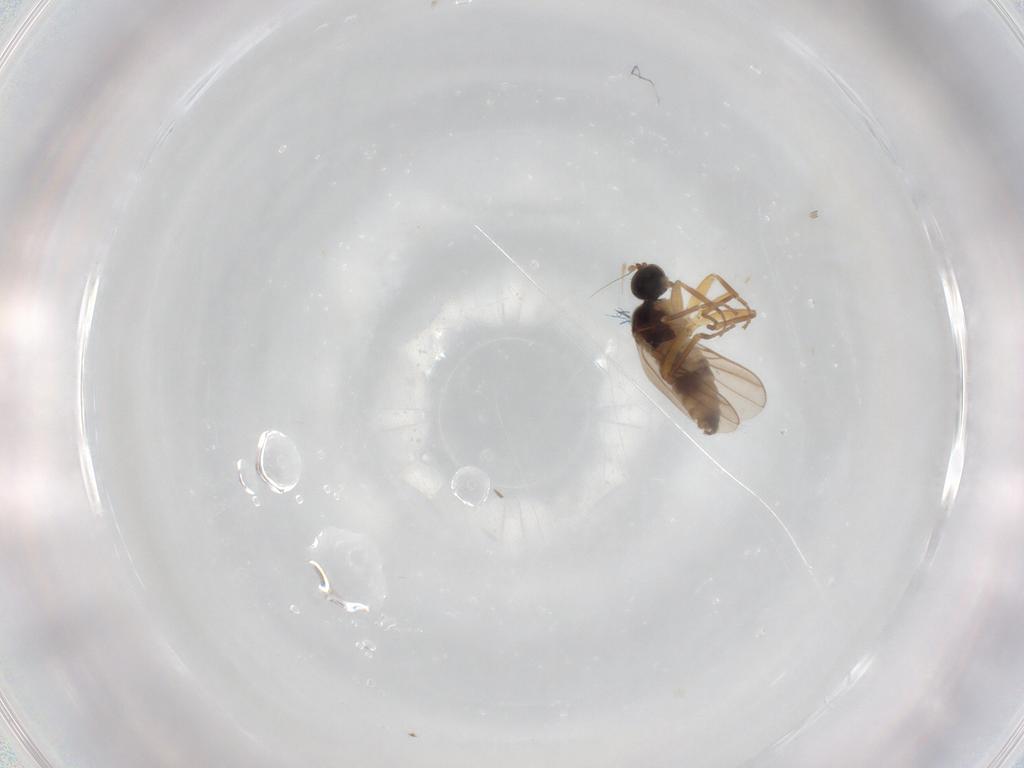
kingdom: Animalia
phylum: Arthropoda
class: Insecta
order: Diptera
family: Hybotidae
